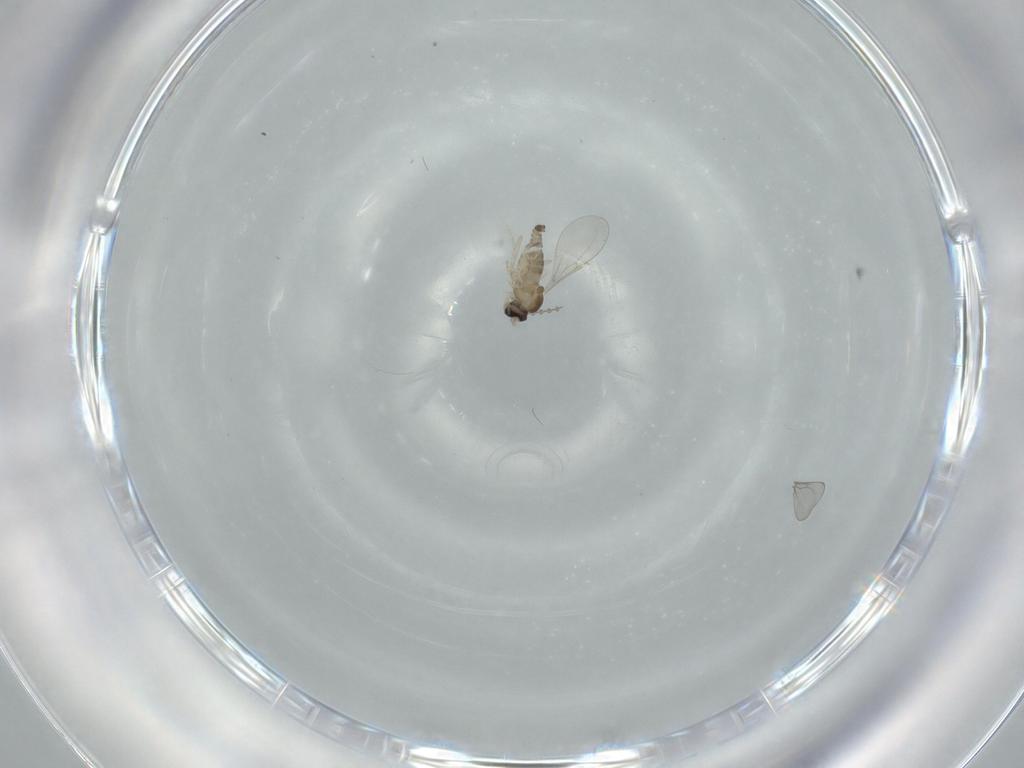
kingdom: Animalia
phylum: Arthropoda
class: Insecta
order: Diptera
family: Cecidomyiidae
